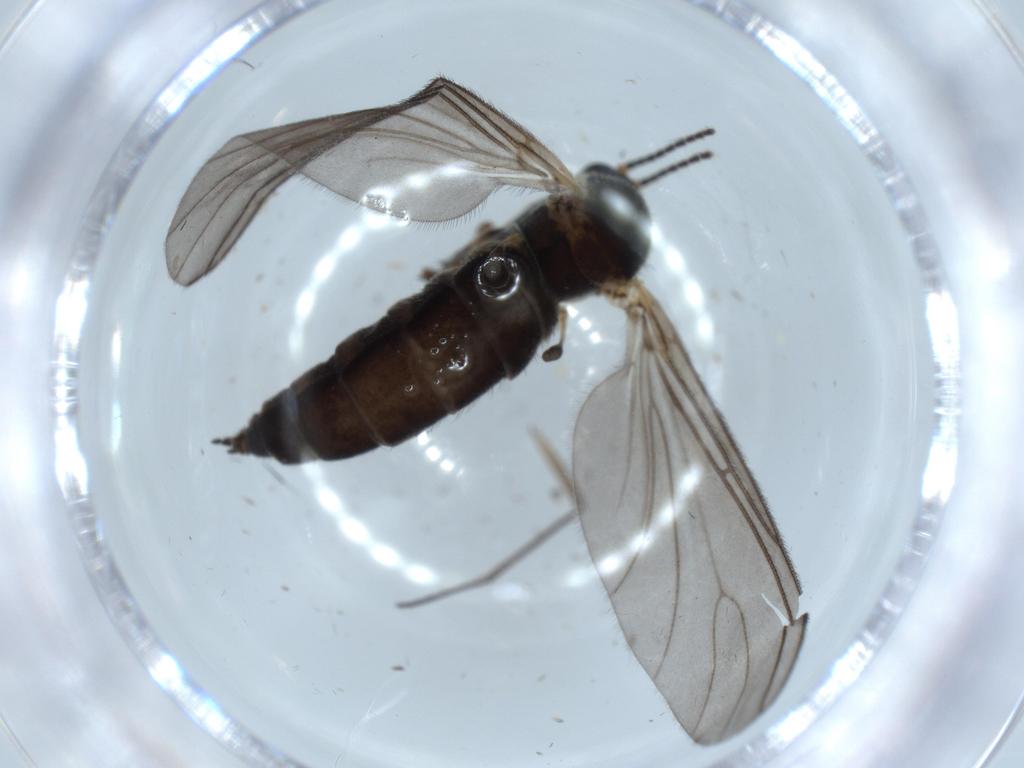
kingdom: Animalia
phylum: Arthropoda
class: Insecta
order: Diptera
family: Sciaridae
